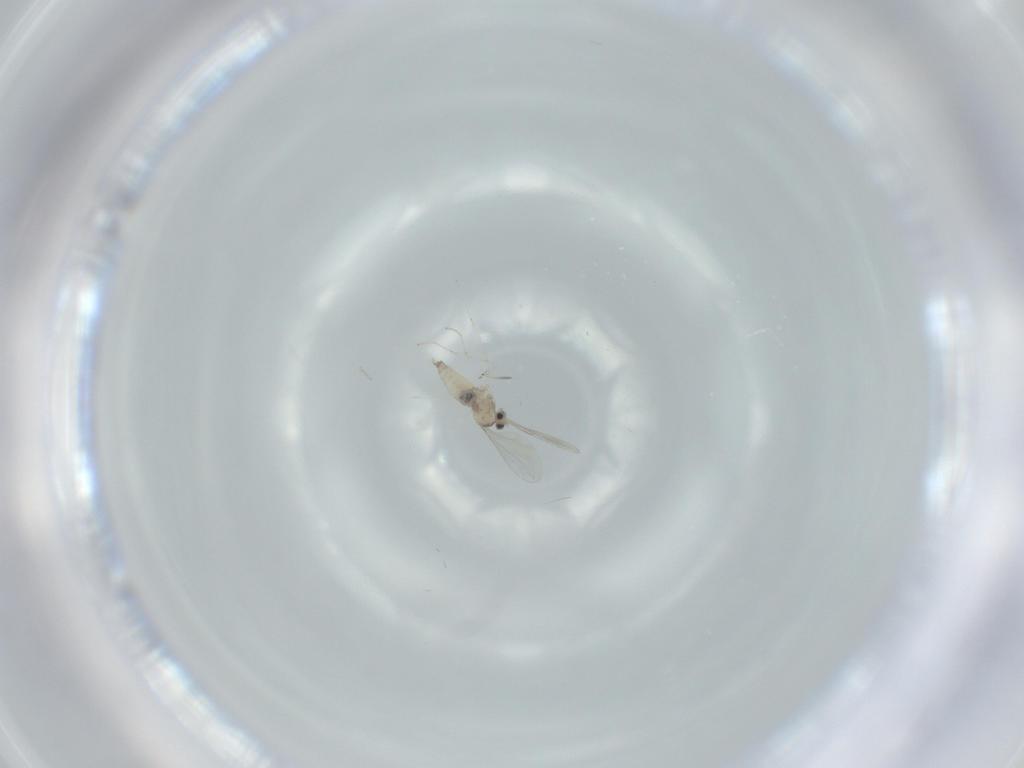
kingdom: Animalia
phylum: Arthropoda
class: Insecta
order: Diptera
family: Cecidomyiidae
